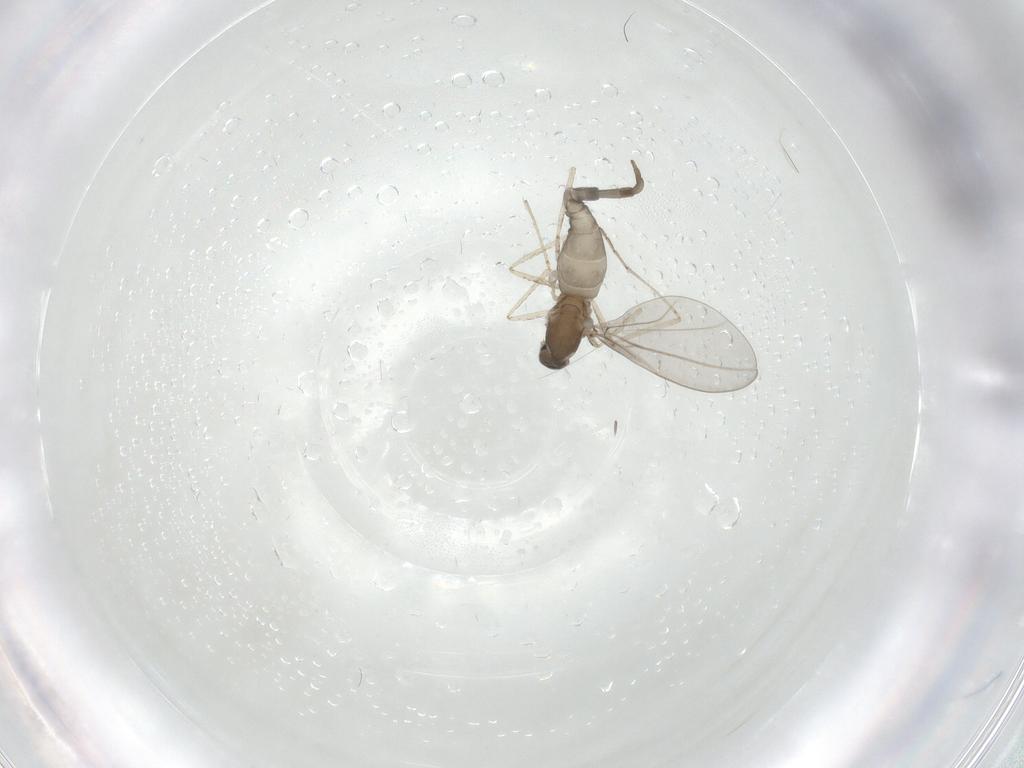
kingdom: Animalia
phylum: Arthropoda
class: Insecta
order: Diptera
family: Cecidomyiidae
